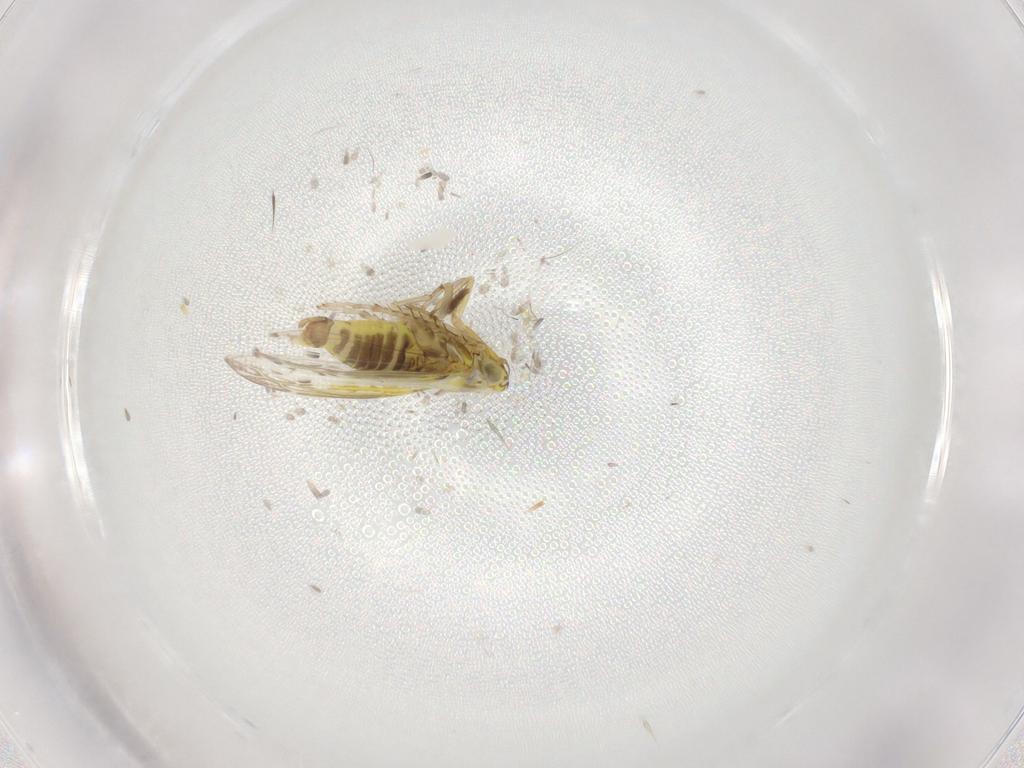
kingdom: Animalia
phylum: Arthropoda
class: Insecta
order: Hemiptera
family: Cicadellidae
